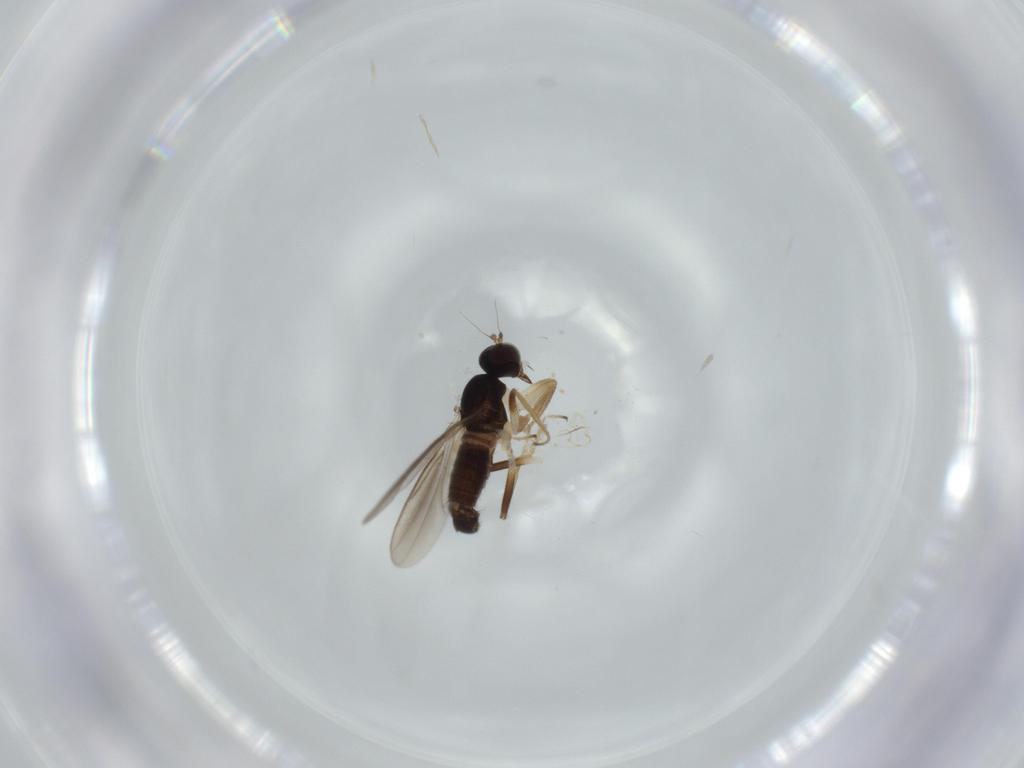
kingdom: Animalia
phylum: Arthropoda
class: Insecta
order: Diptera
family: Hybotidae
